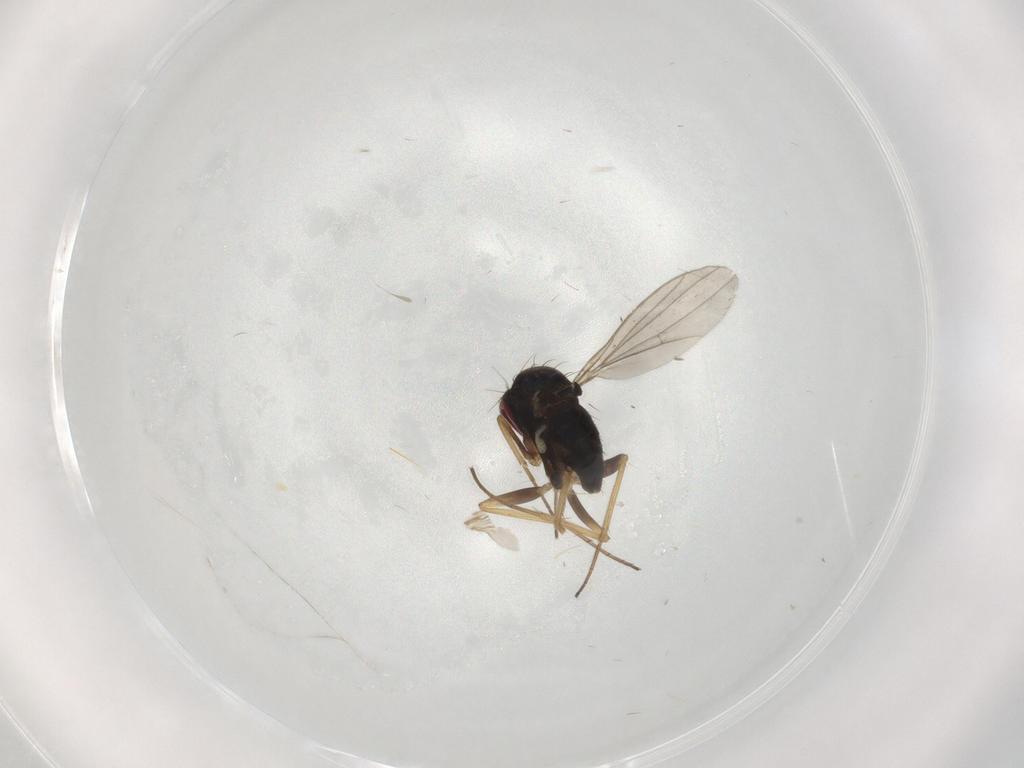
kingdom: Animalia
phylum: Arthropoda
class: Insecta
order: Diptera
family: Dolichopodidae
